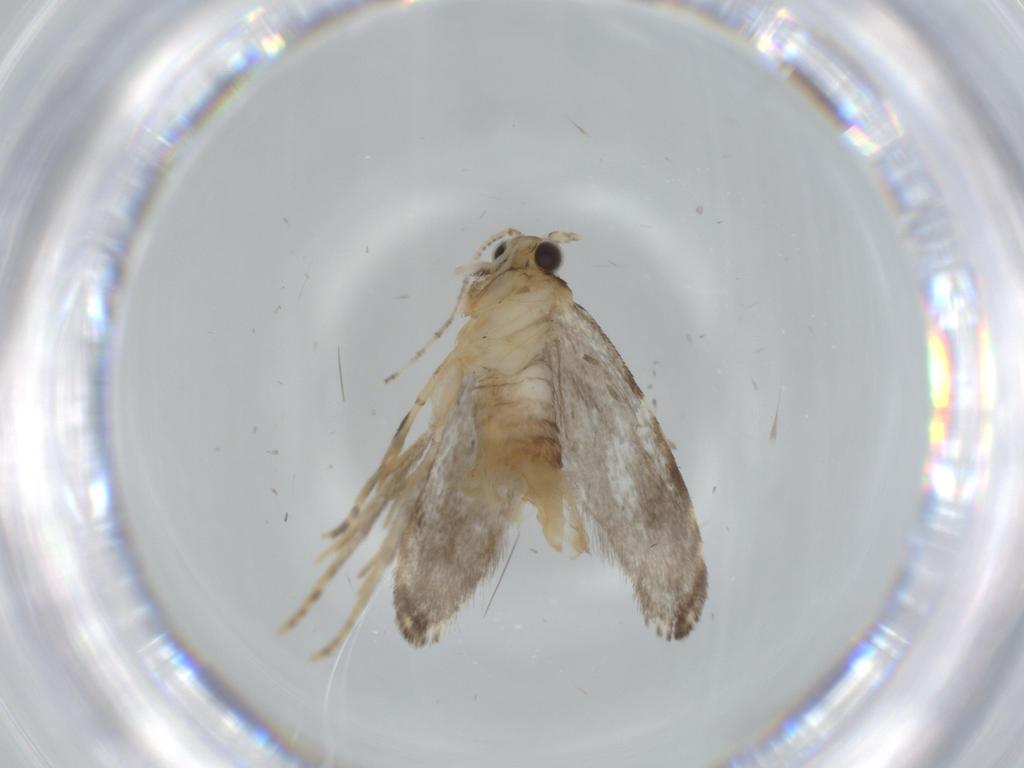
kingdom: Animalia
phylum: Arthropoda
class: Insecta
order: Lepidoptera
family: Tineidae
